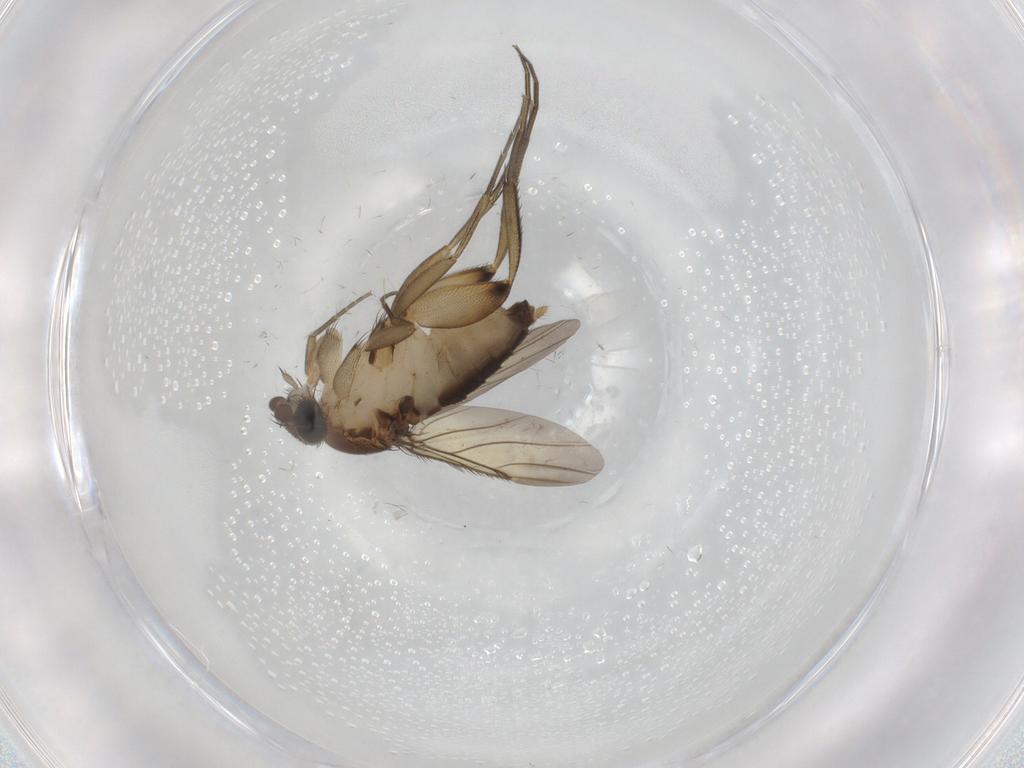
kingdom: Animalia
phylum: Arthropoda
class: Insecta
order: Diptera
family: Phoridae
